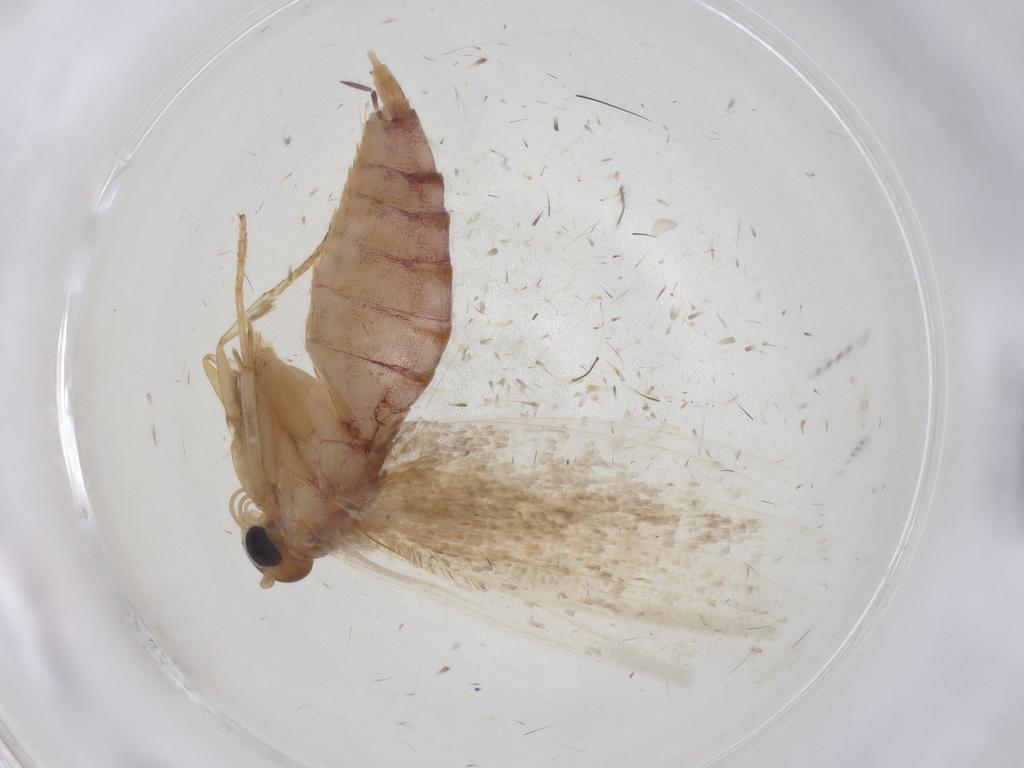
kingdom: Animalia
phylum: Arthropoda
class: Insecta
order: Lepidoptera
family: Blastobasidae
